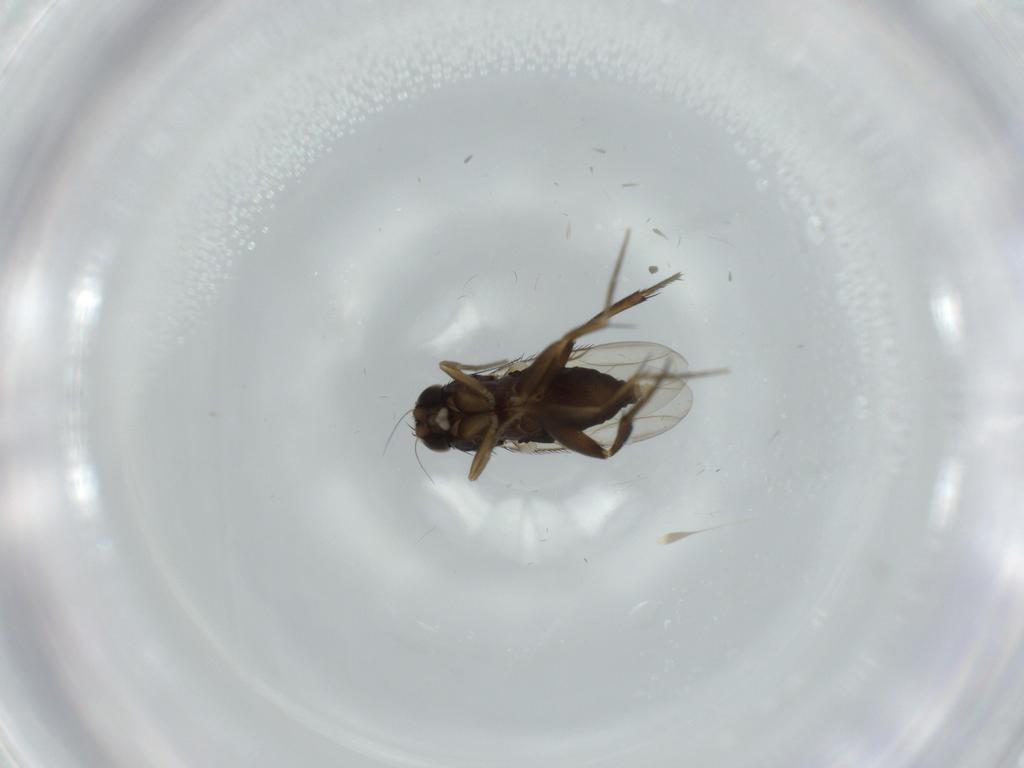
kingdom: Animalia
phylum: Arthropoda
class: Insecta
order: Diptera
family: Phoridae
